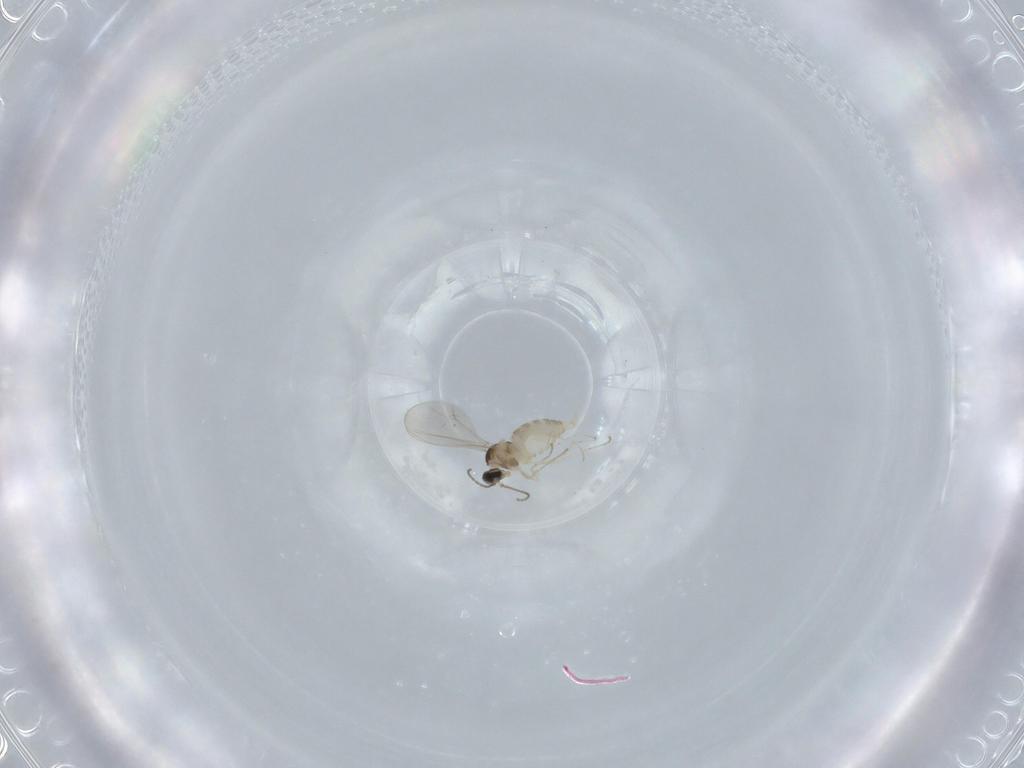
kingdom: Animalia
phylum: Arthropoda
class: Insecta
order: Diptera
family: Cecidomyiidae
